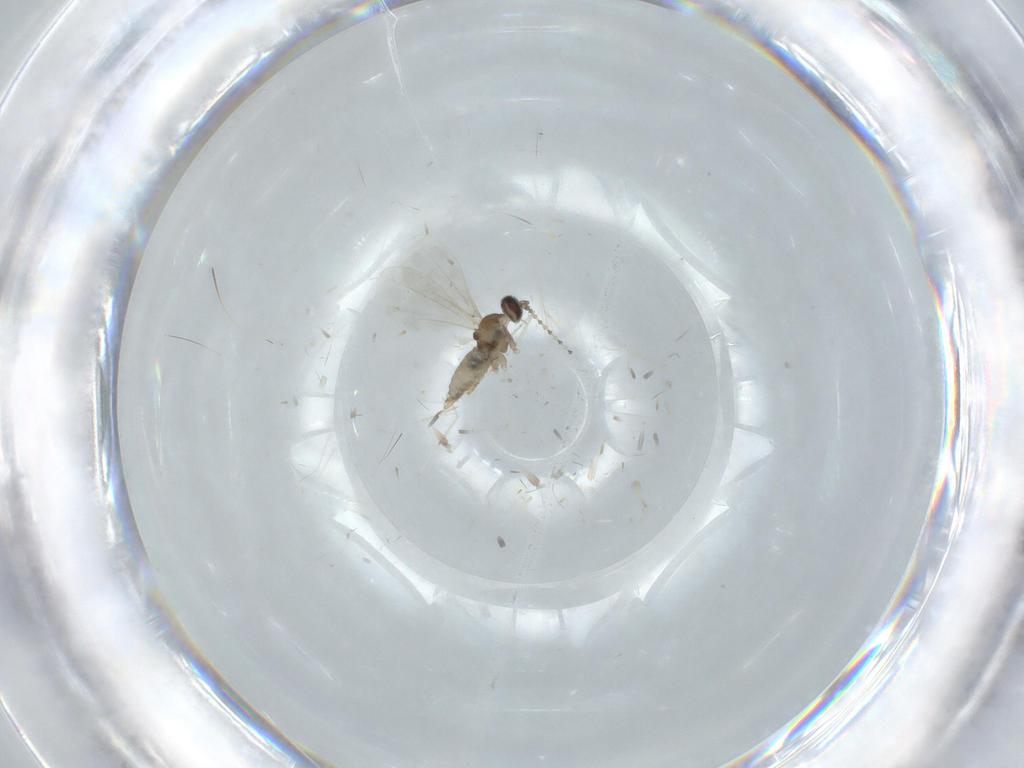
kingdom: Animalia
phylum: Arthropoda
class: Insecta
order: Diptera
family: Cecidomyiidae
